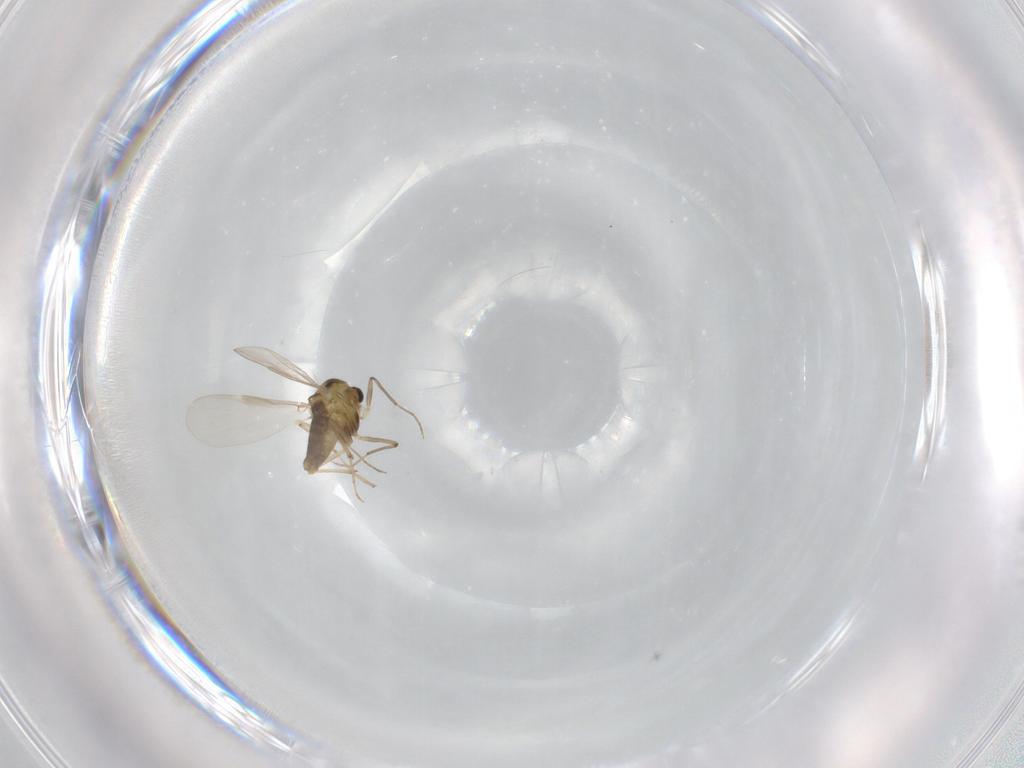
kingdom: Animalia
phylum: Arthropoda
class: Insecta
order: Diptera
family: Chironomidae
